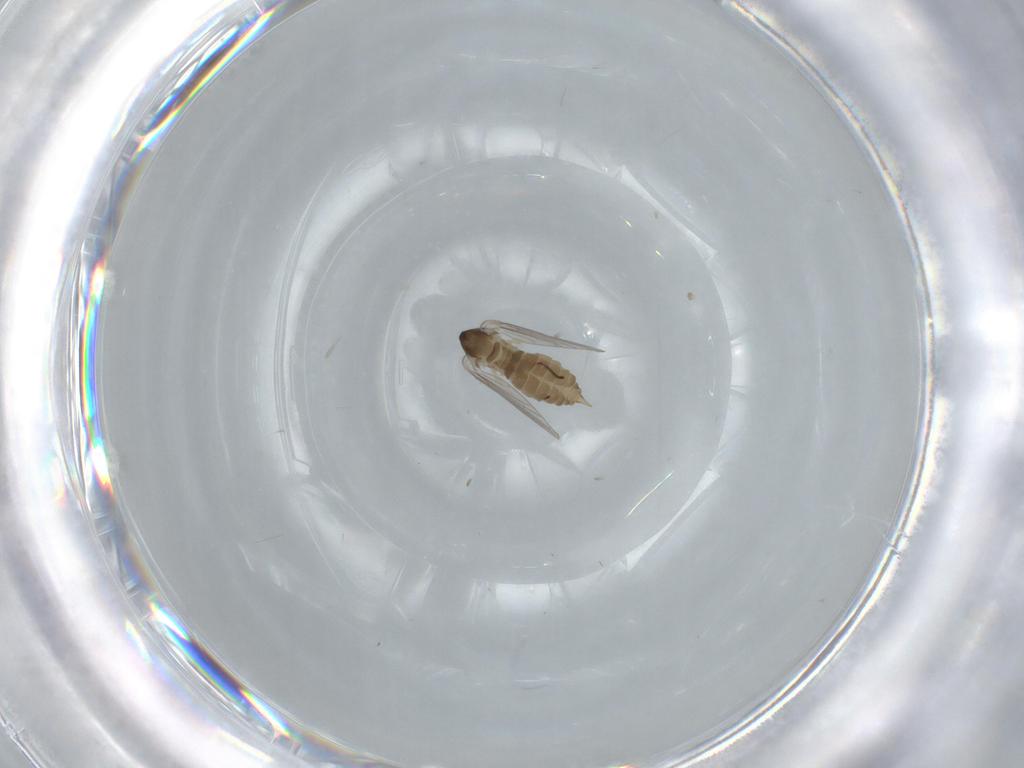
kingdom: Animalia
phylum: Arthropoda
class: Insecta
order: Diptera
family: Psychodidae
